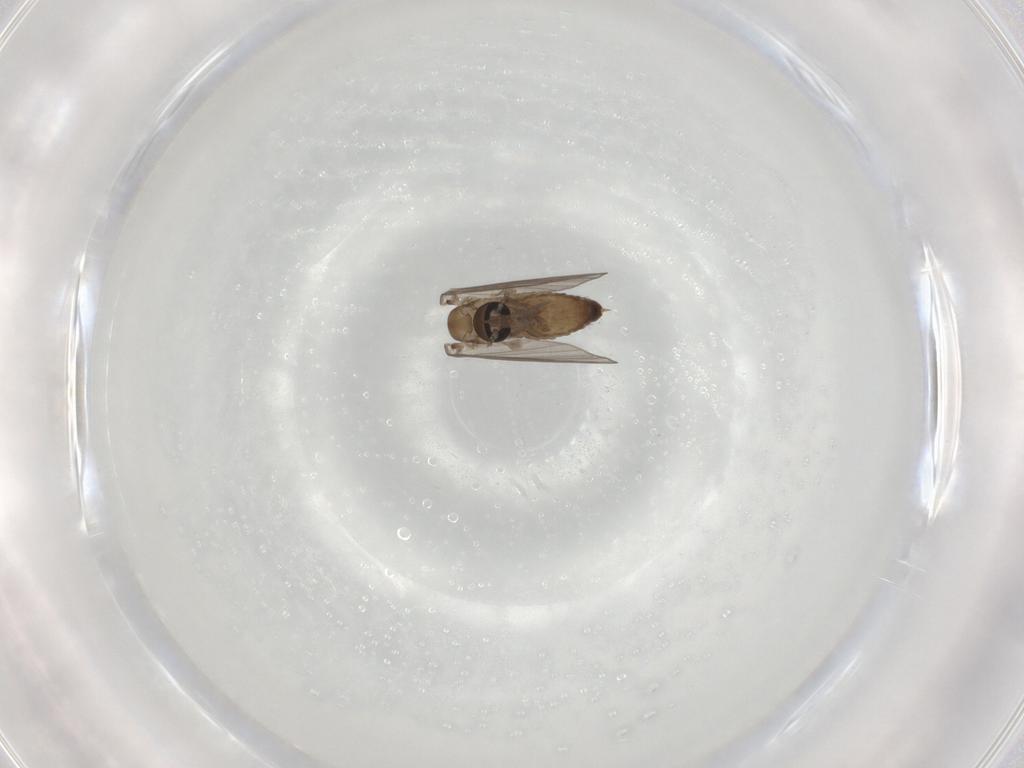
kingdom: Animalia
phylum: Arthropoda
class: Insecta
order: Diptera
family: Psychodidae
